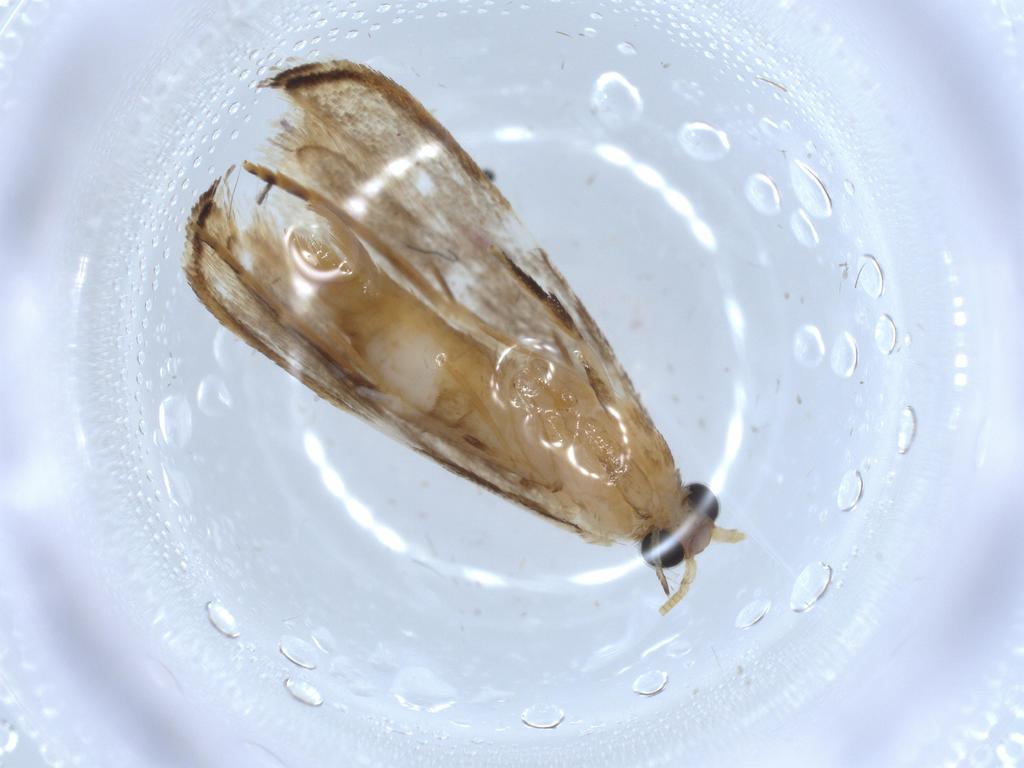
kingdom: Animalia
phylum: Arthropoda
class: Insecta
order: Lepidoptera
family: Tineidae
